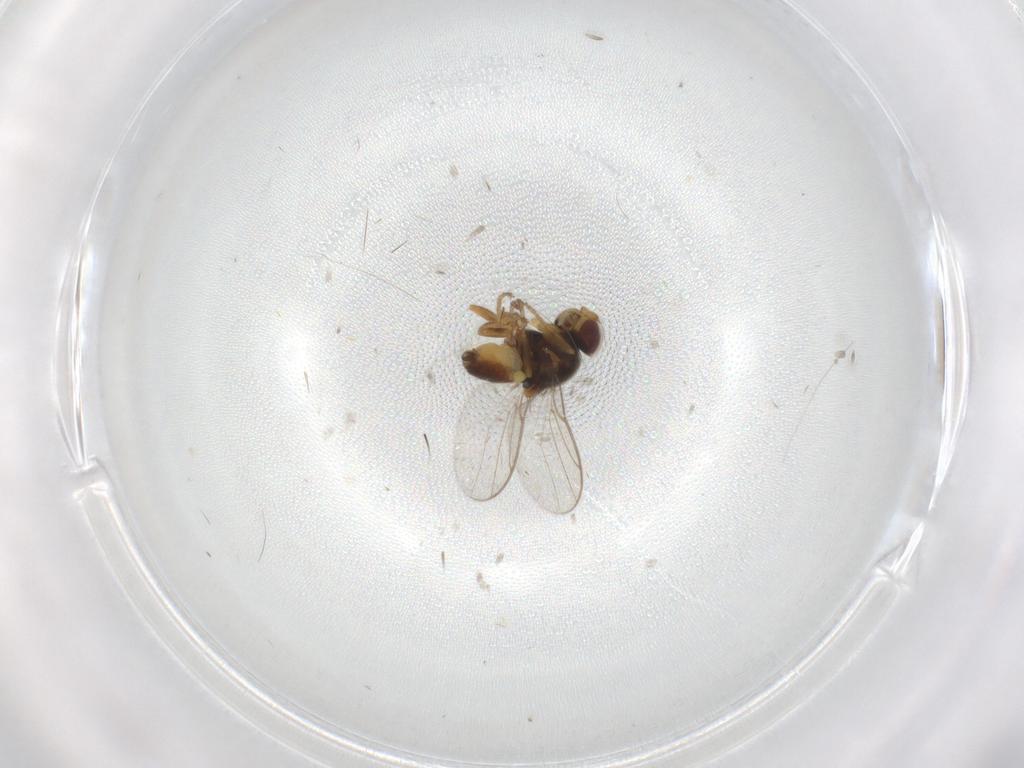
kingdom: Animalia
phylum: Arthropoda
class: Insecta
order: Diptera
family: Chloropidae
